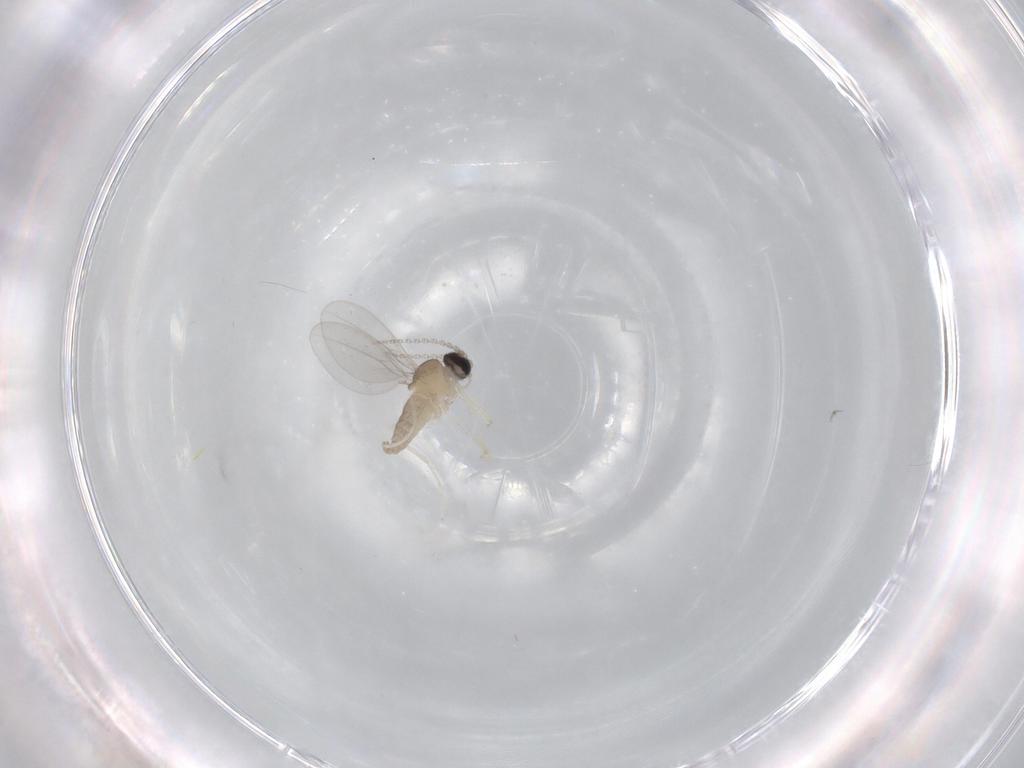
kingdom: Animalia
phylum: Arthropoda
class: Insecta
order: Diptera
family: Cecidomyiidae
